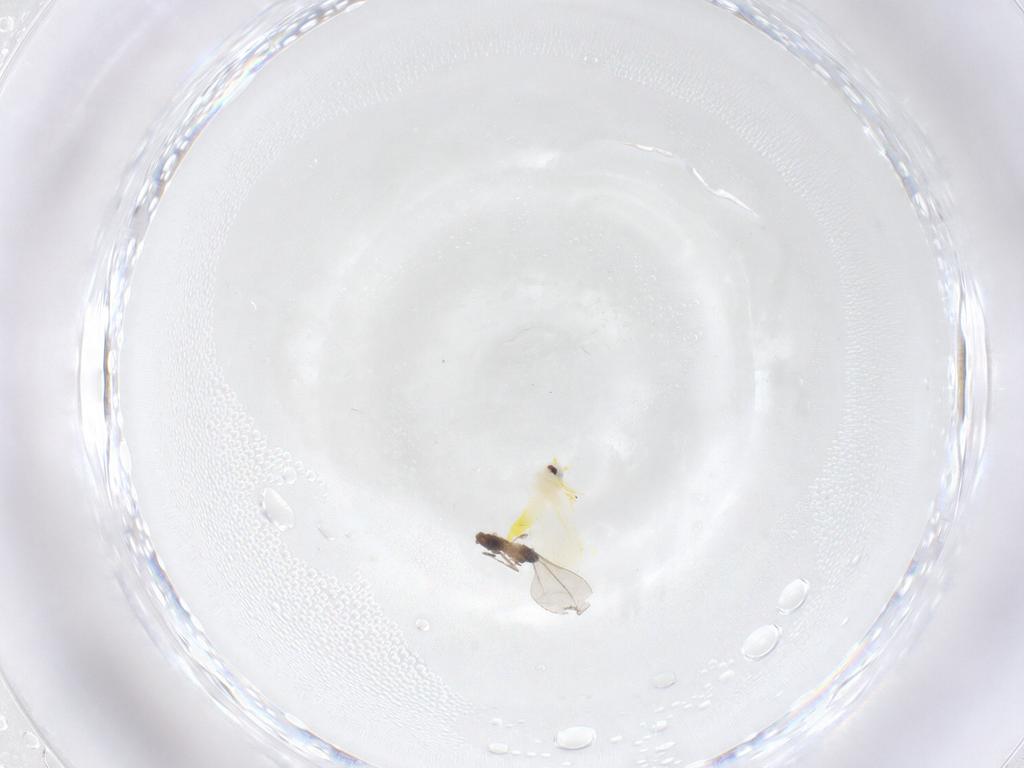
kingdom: Animalia
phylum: Arthropoda
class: Insecta
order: Diptera
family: Cecidomyiidae
